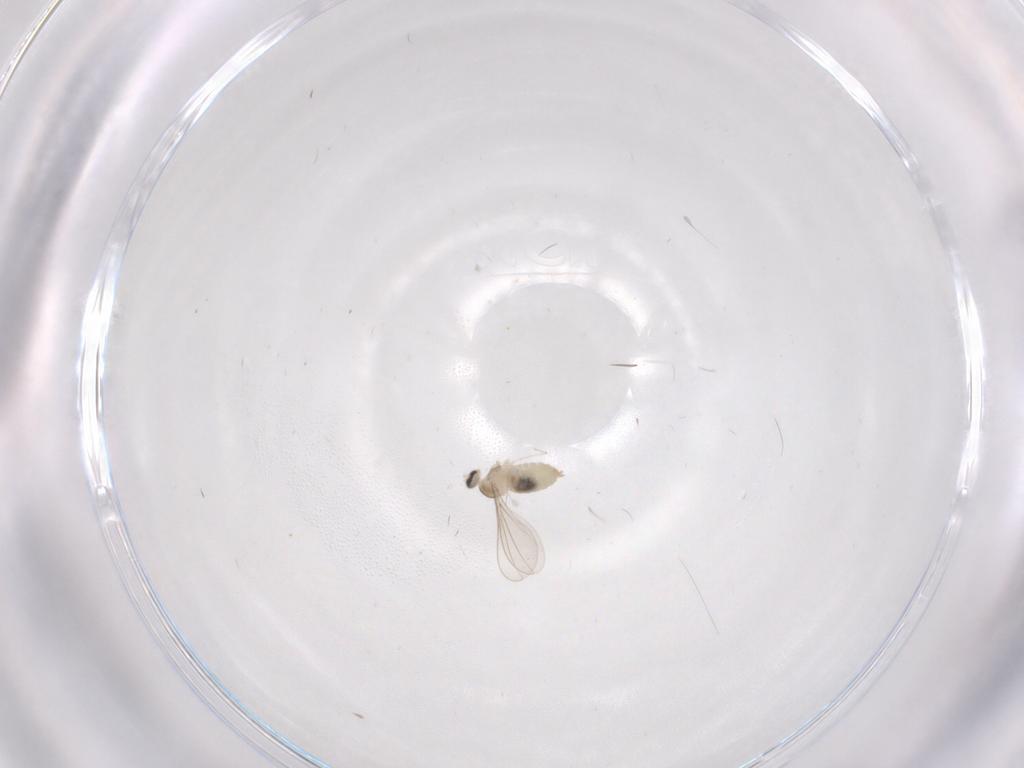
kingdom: Animalia
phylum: Arthropoda
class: Insecta
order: Diptera
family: Cecidomyiidae
